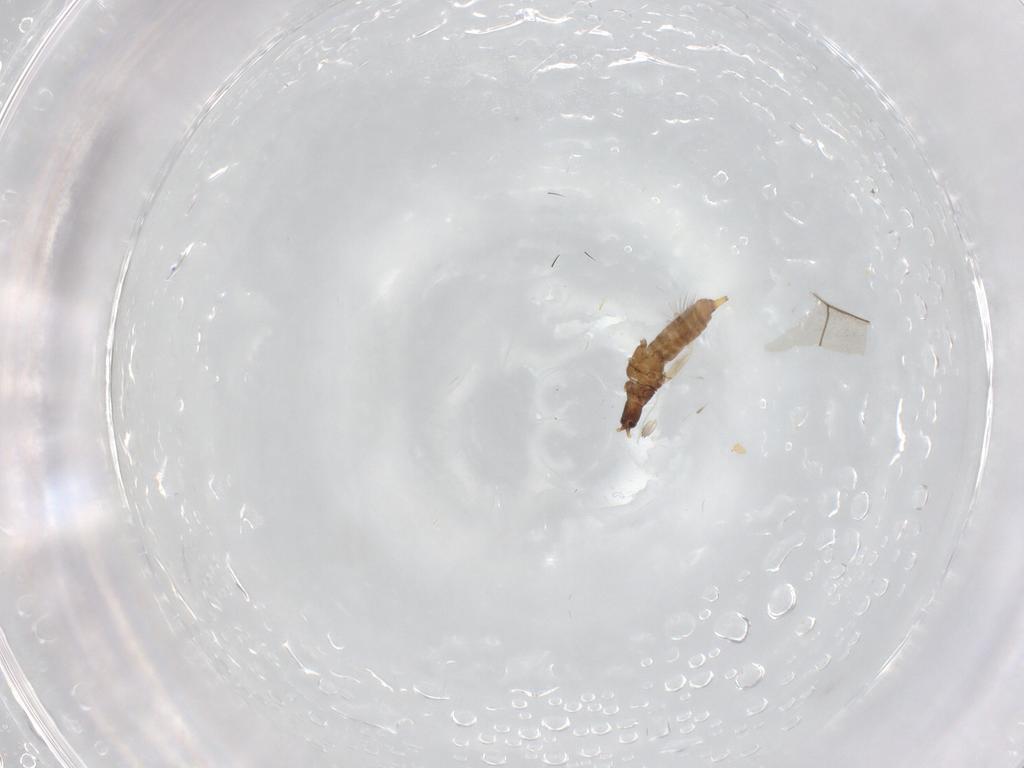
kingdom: Animalia
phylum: Arthropoda
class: Insecta
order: Thysanoptera
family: Phlaeothripidae
